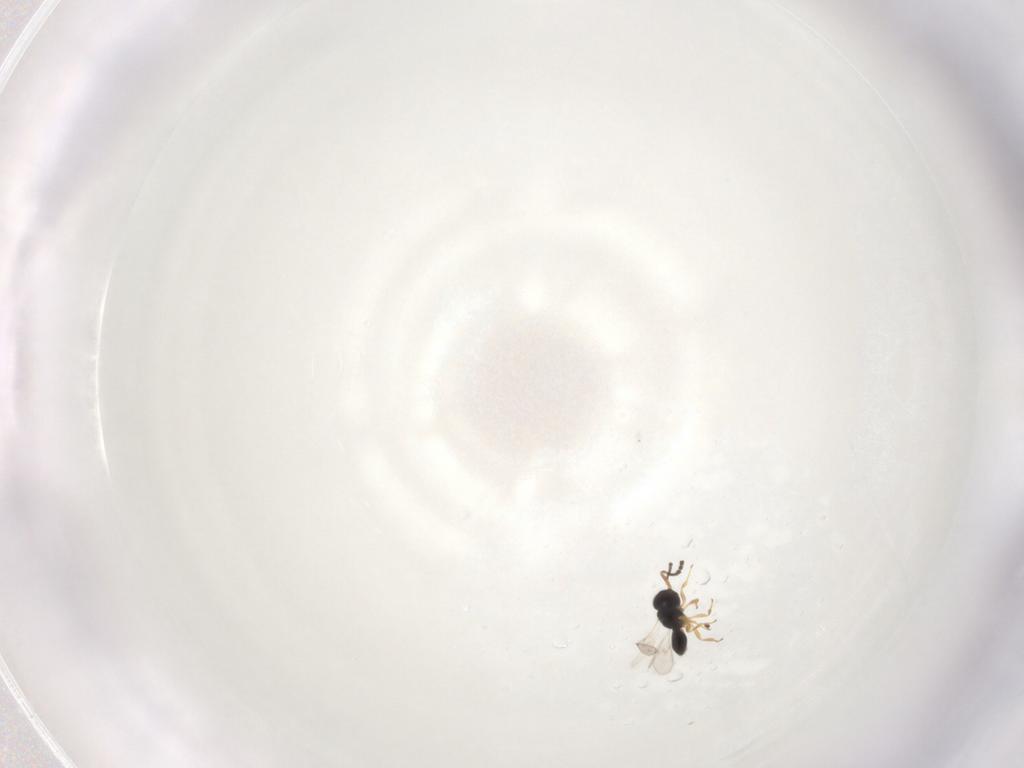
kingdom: Animalia
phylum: Arthropoda
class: Insecta
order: Hymenoptera
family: Scelionidae
